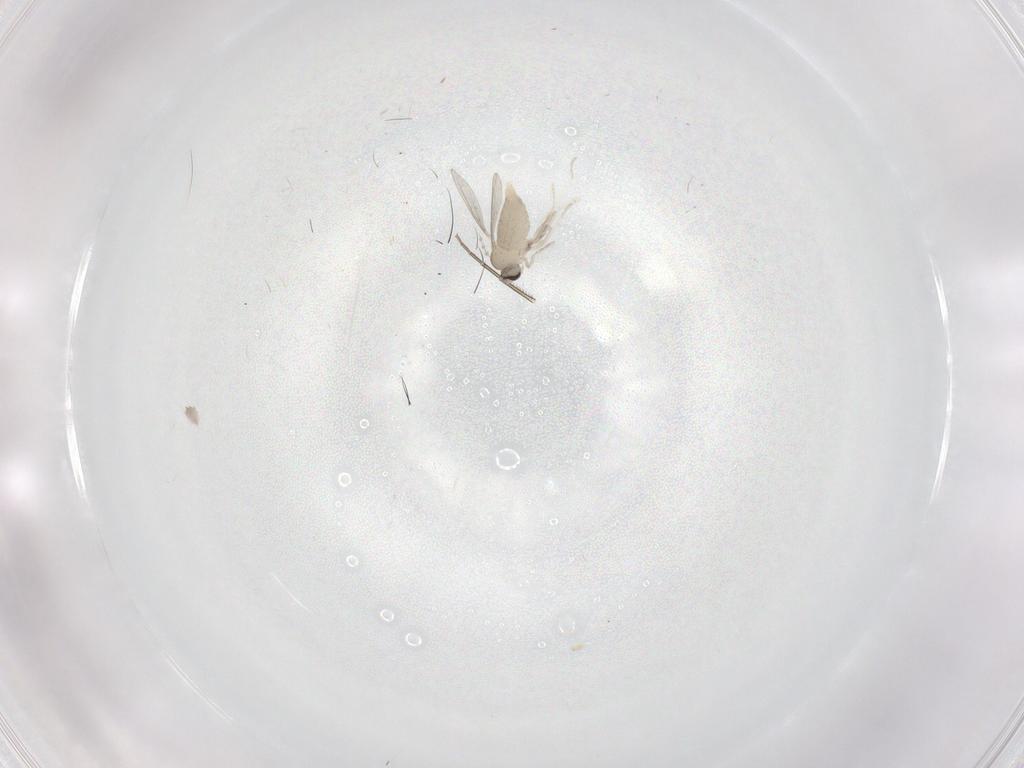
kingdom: Animalia
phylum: Arthropoda
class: Insecta
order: Diptera
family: Cecidomyiidae
